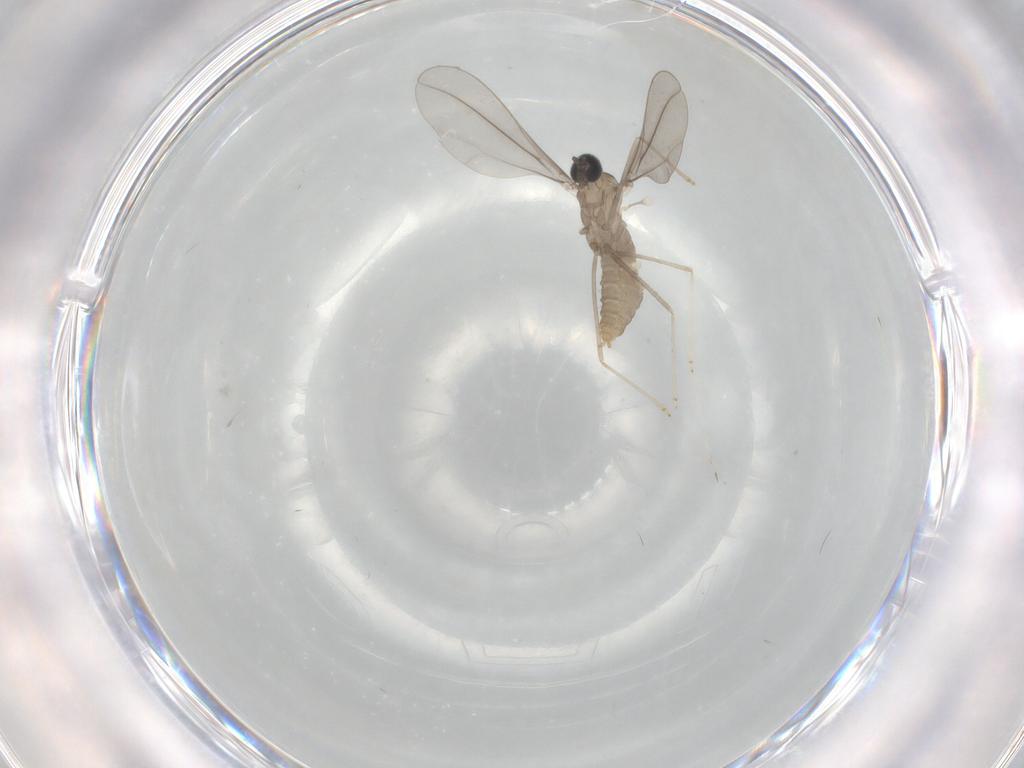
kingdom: Animalia
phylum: Arthropoda
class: Insecta
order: Diptera
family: Cecidomyiidae
